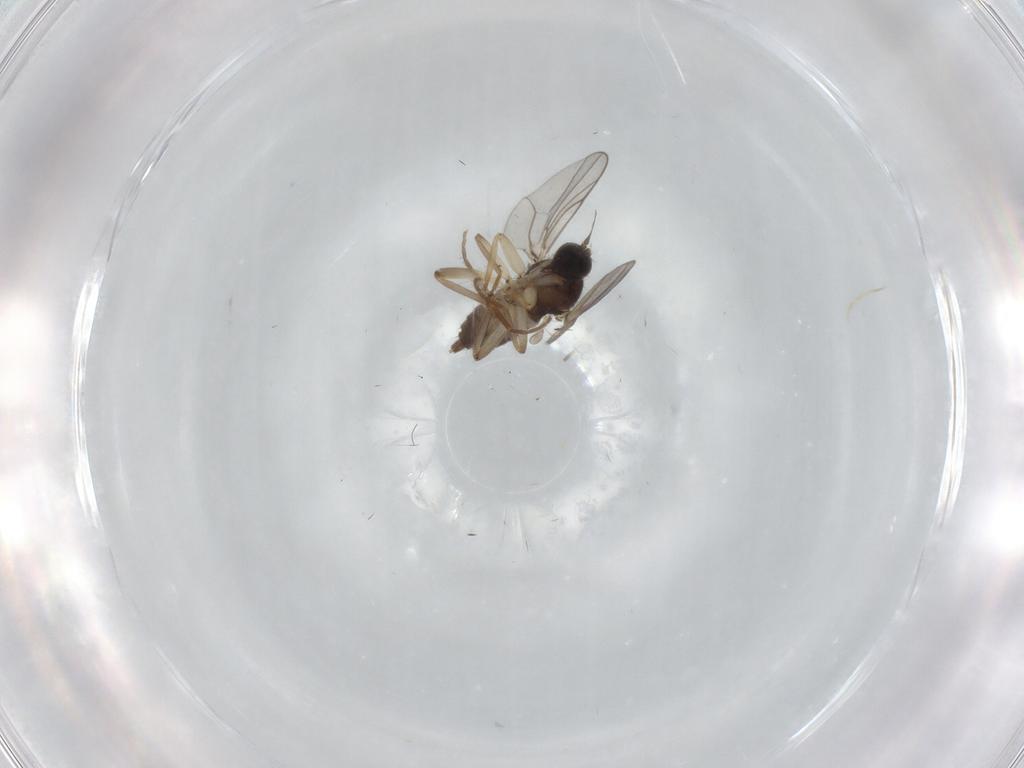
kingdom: Animalia
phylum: Arthropoda
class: Insecta
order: Diptera
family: Hybotidae
